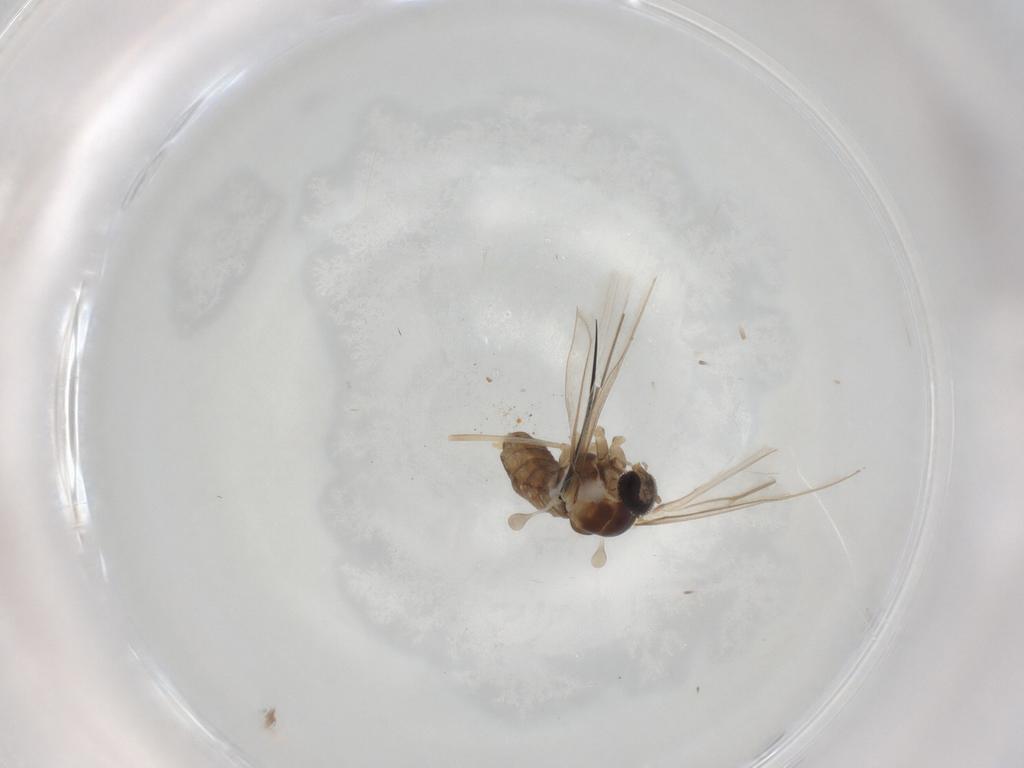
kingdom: Animalia
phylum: Arthropoda
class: Insecta
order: Diptera
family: Cecidomyiidae
